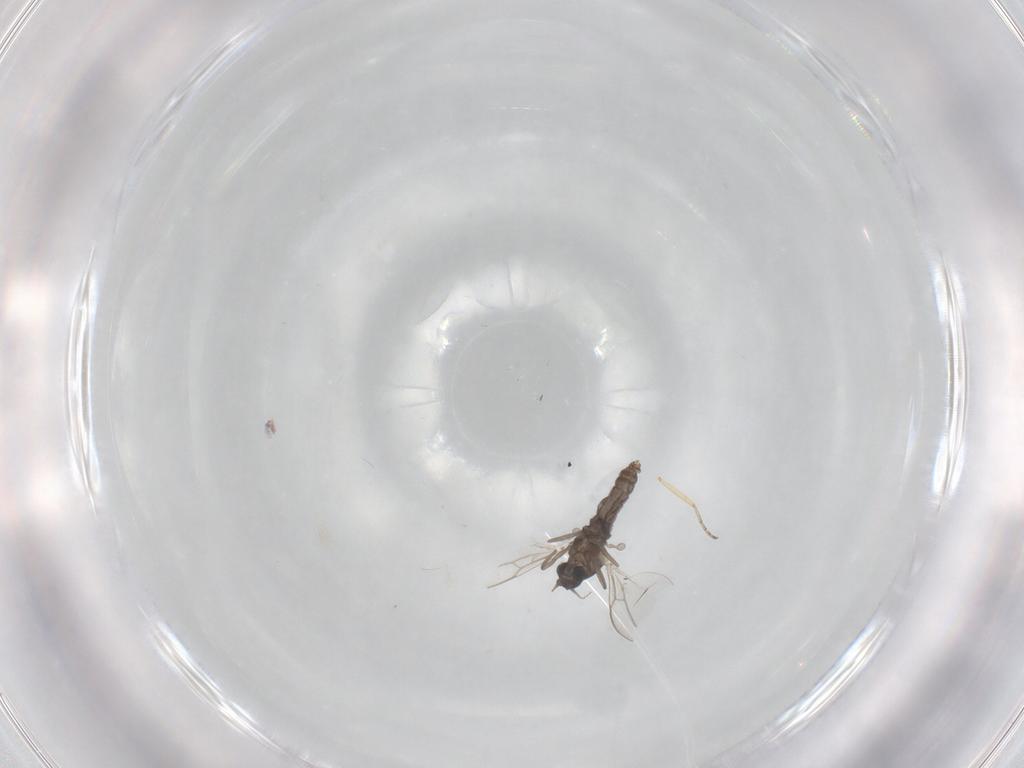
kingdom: Animalia
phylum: Arthropoda
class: Insecta
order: Diptera
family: Cecidomyiidae
